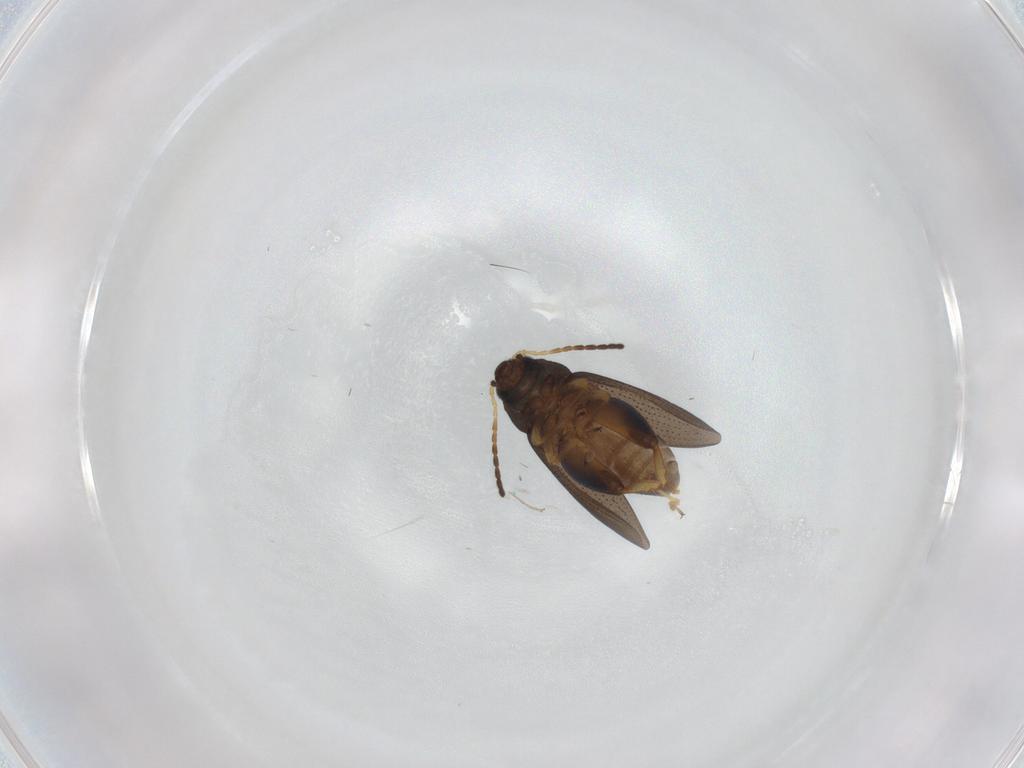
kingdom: Animalia
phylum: Arthropoda
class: Insecta
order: Coleoptera
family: Chrysomelidae
